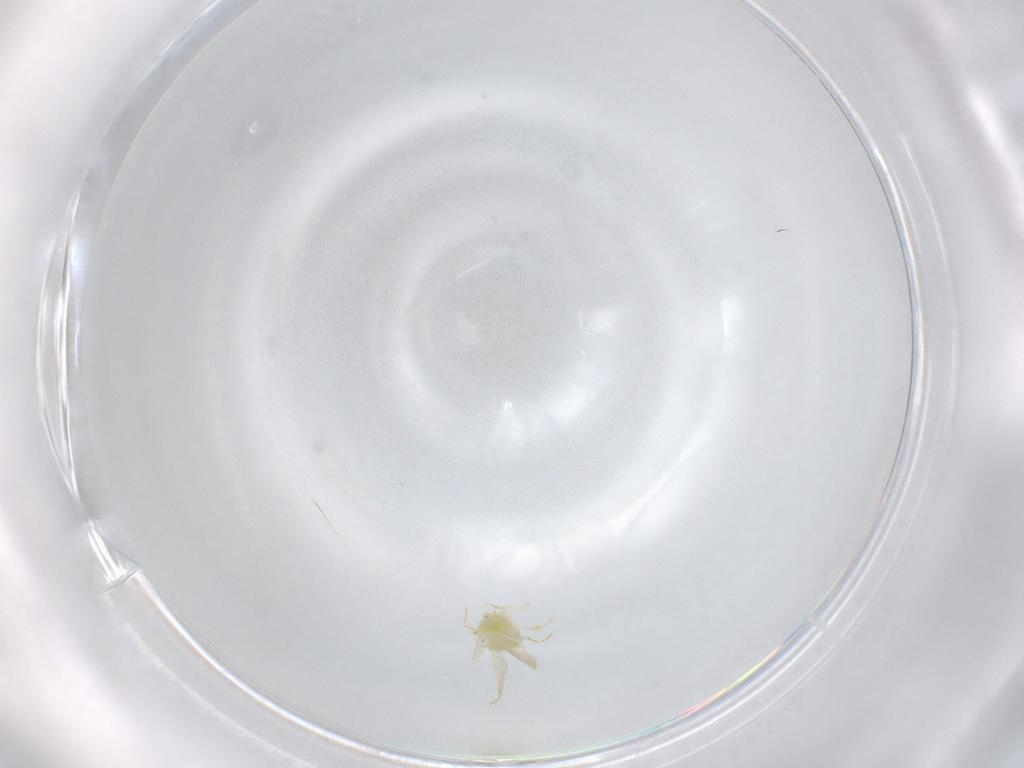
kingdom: Animalia
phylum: Arthropoda
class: Insecta
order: Hemiptera
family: Aleyrodidae
